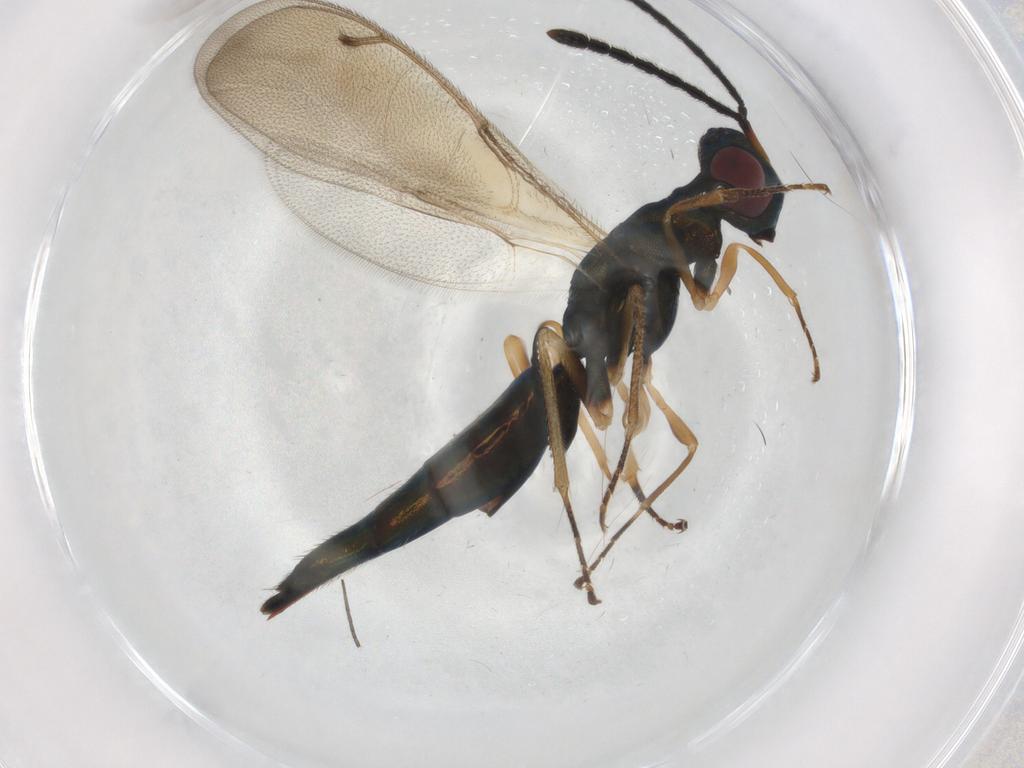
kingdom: Animalia
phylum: Arthropoda
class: Insecta
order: Hymenoptera
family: Pteromalidae
